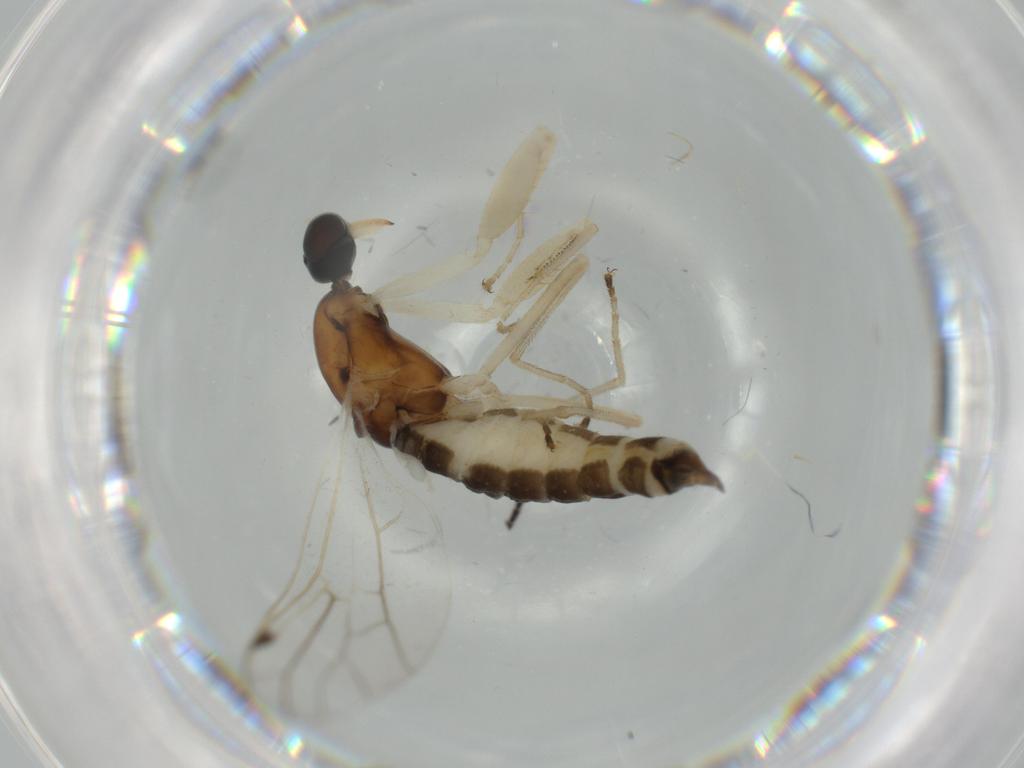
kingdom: Animalia
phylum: Arthropoda
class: Insecta
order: Diptera
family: Empididae
